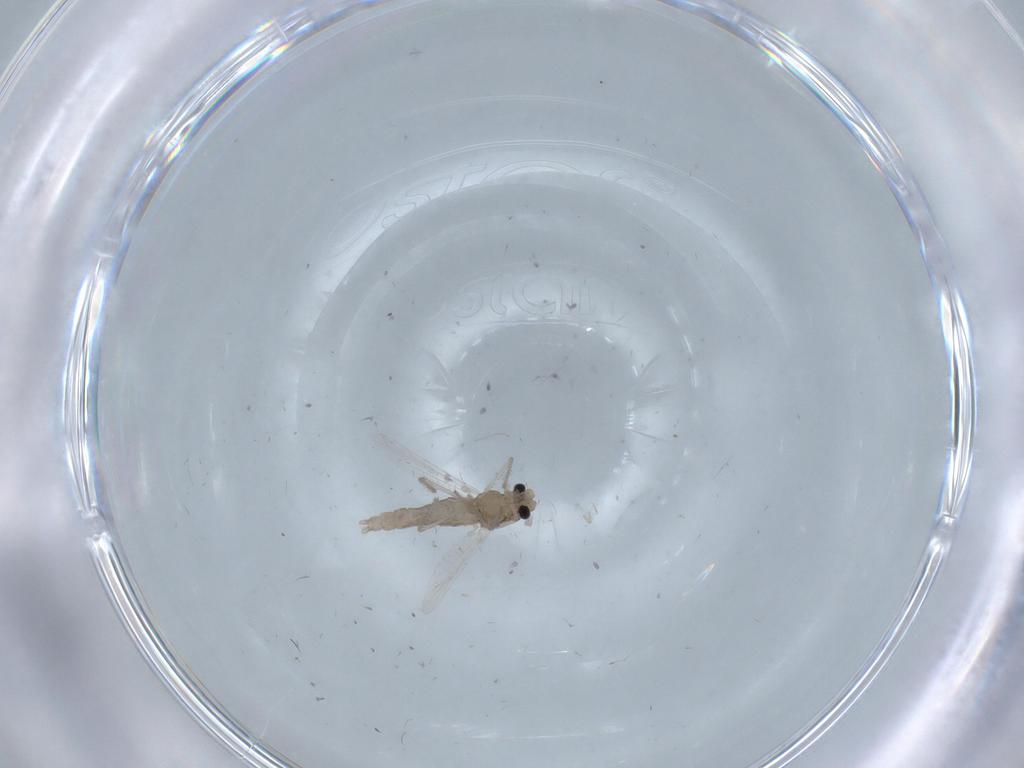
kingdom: Animalia
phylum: Arthropoda
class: Insecta
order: Diptera
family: Chironomidae
